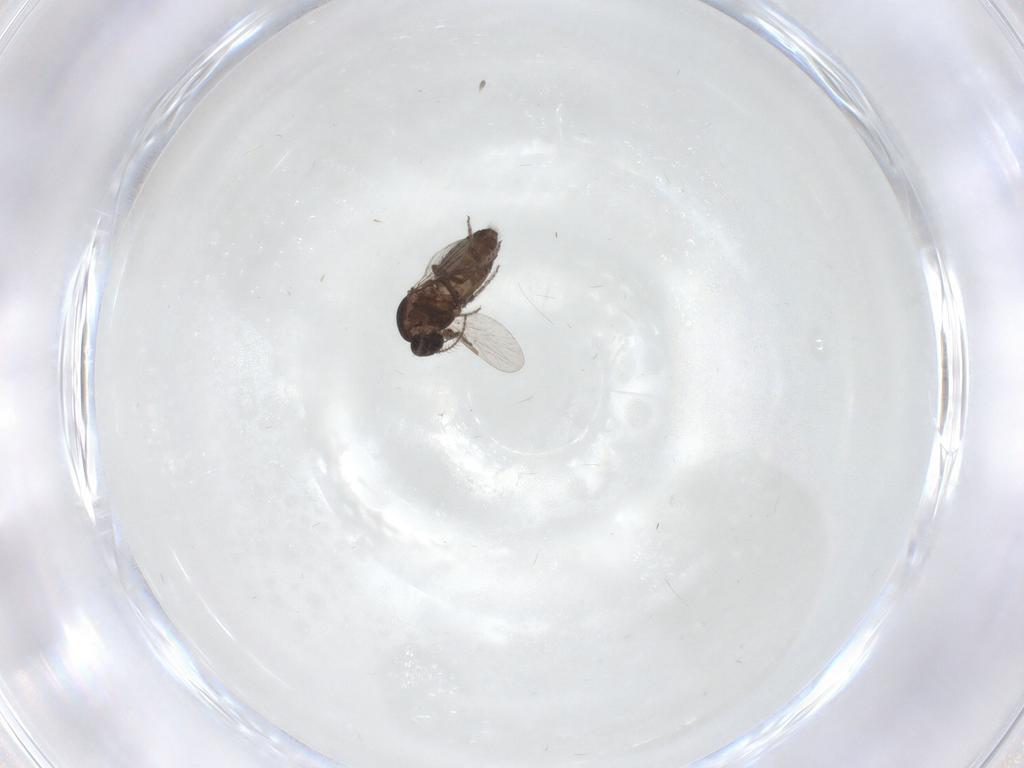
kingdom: Animalia
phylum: Arthropoda
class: Insecta
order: Diptera
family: Ceratopogonidae
